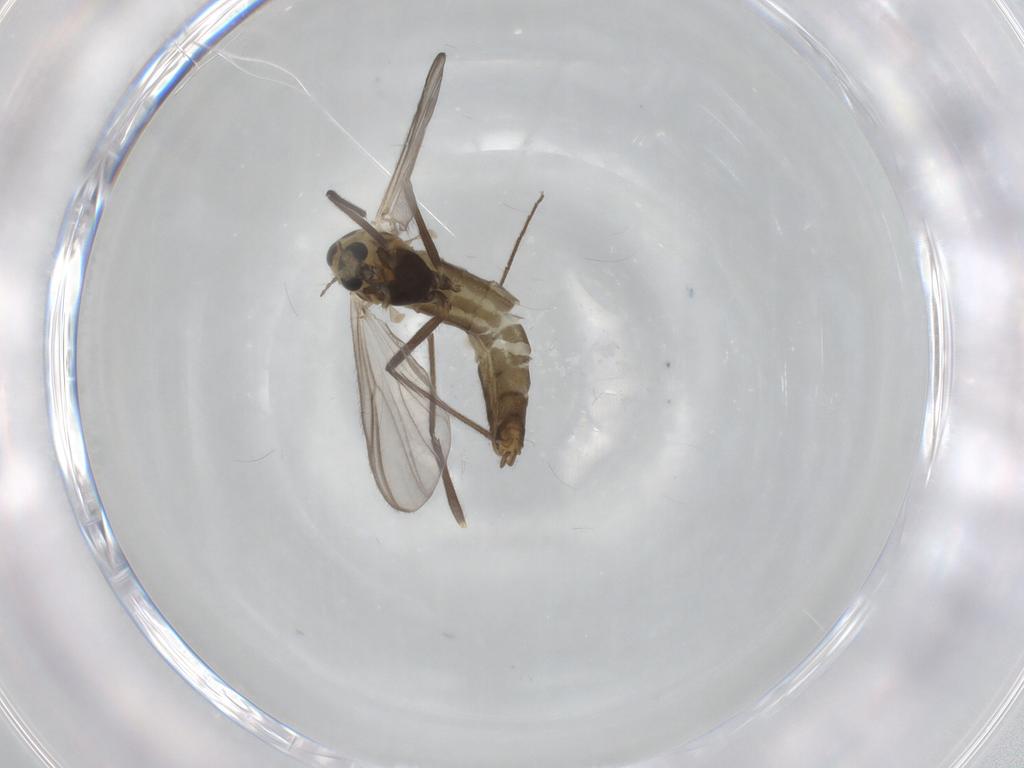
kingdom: Animalia
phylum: Arthropoda
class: Insecta
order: Diptera
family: Chironomidae
